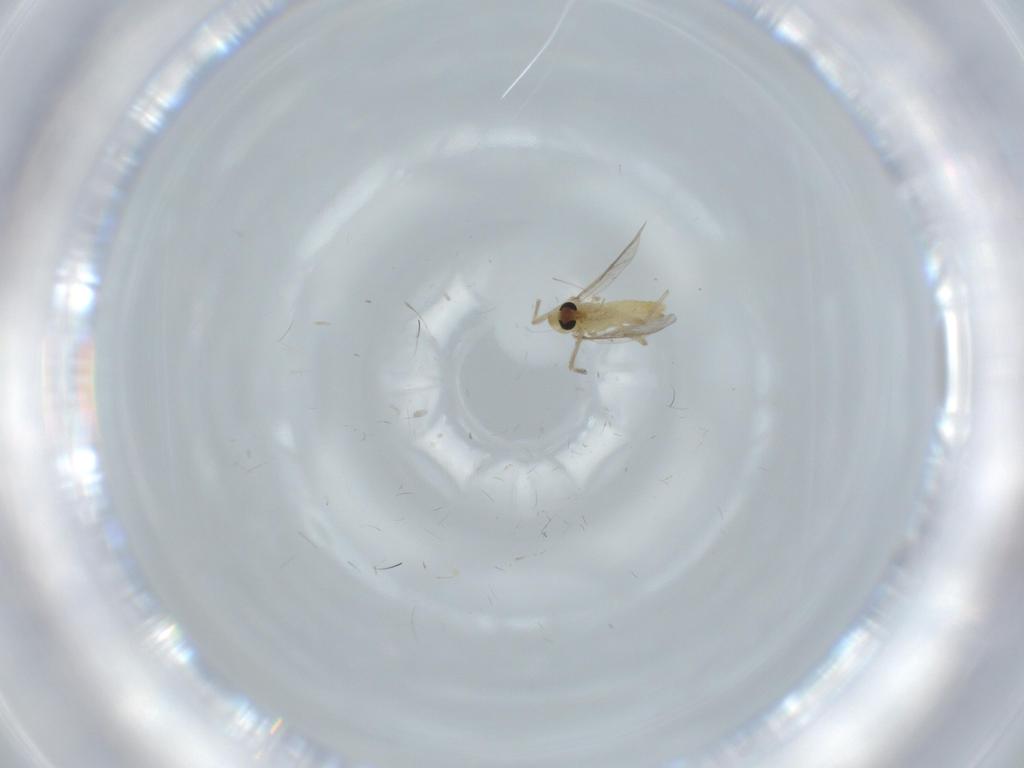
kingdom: Animalia
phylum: Arthropoda
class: Insecta
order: Diptera
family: Chironomidae
